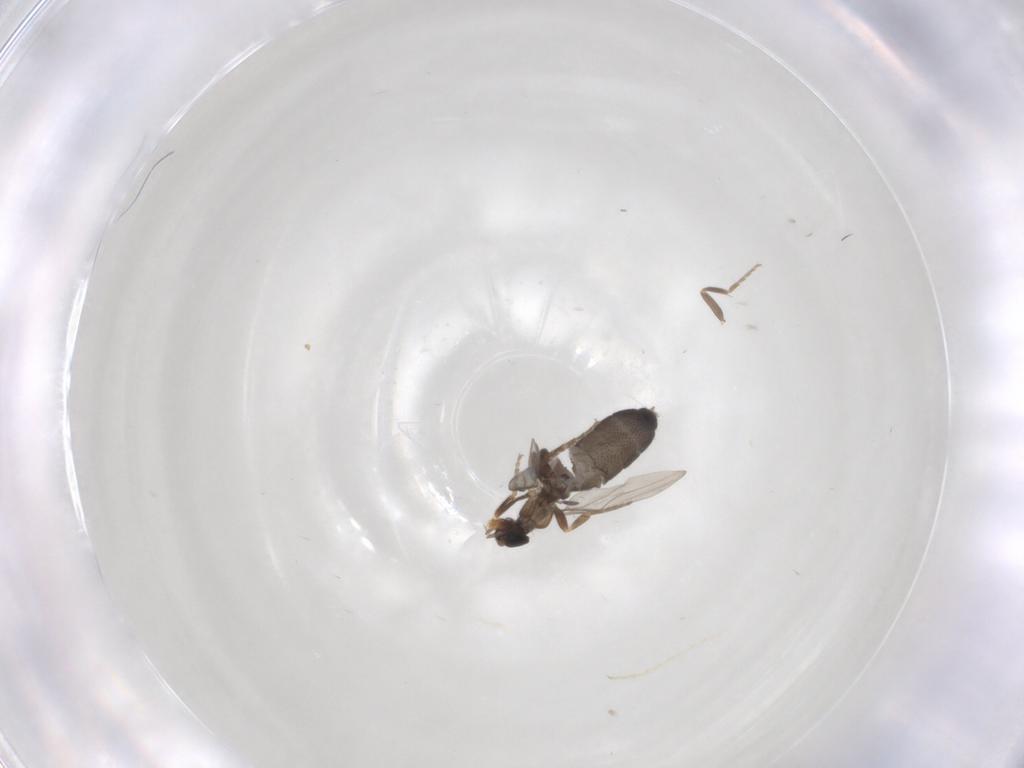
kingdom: Animalia
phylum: Arthropoda
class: Insecta
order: Diptera
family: Phoridae
